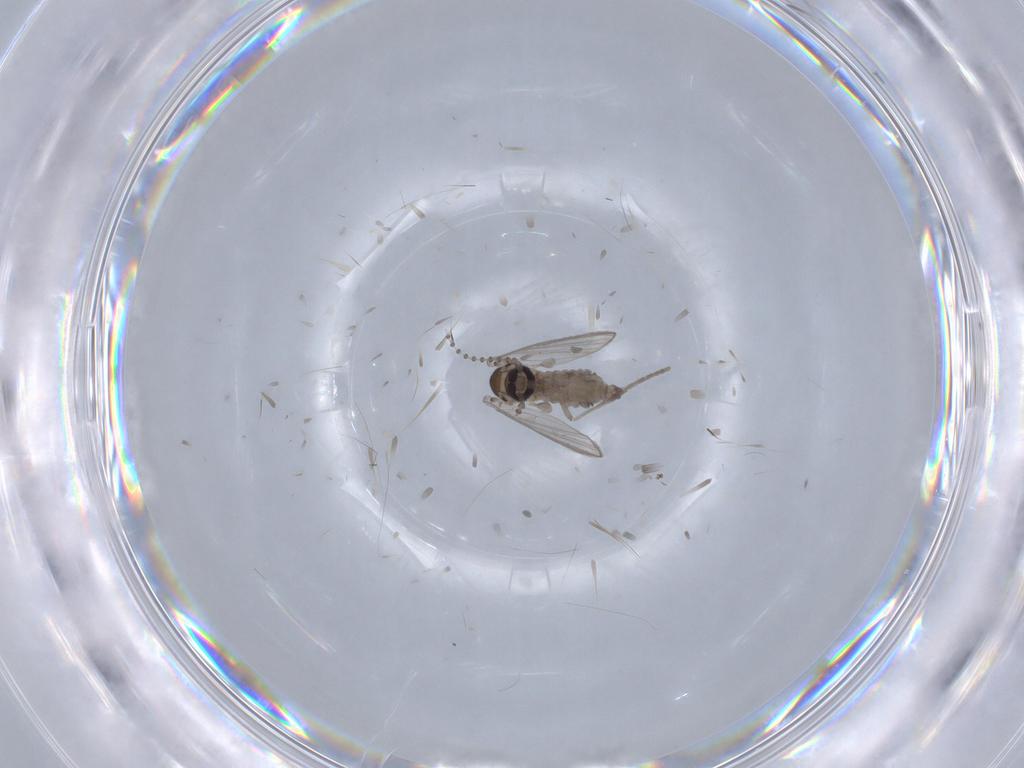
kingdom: Animalia
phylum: Arthropoda
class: Insecta
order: Diptera
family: Psychodidae
